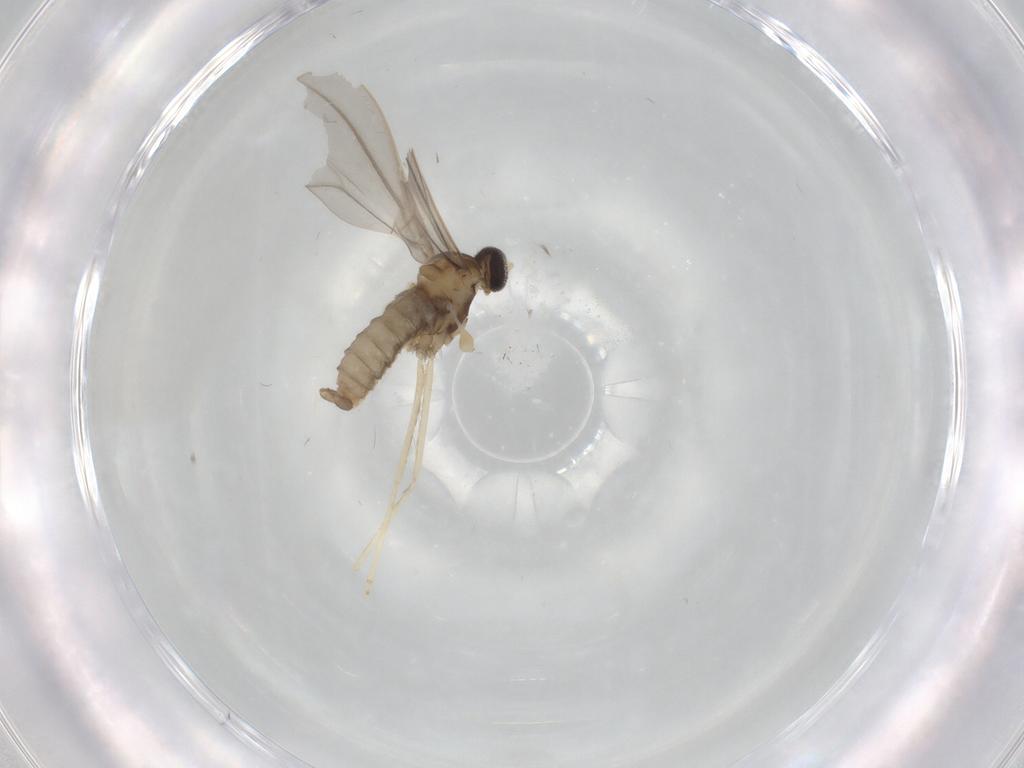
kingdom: Animalia
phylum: Arthropoda
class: Insecta
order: Diptera
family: Cecidomyiidae
